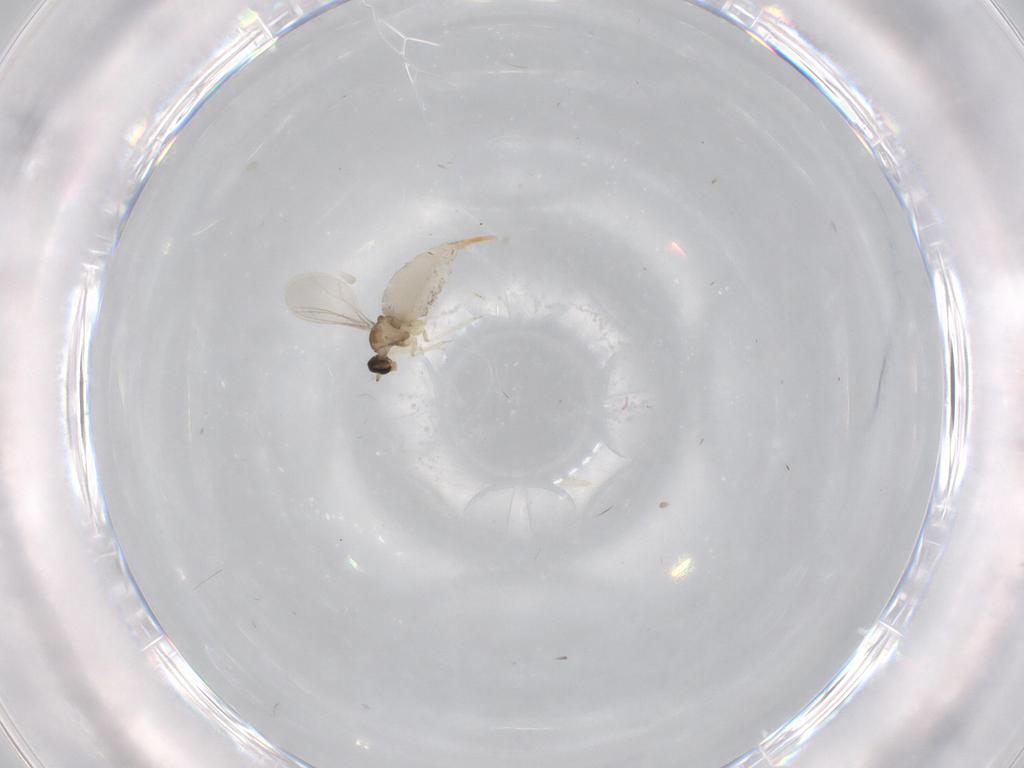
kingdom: Animalia
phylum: Arthropoda
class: Insecta
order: Diptera
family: Cecidomyiidae
